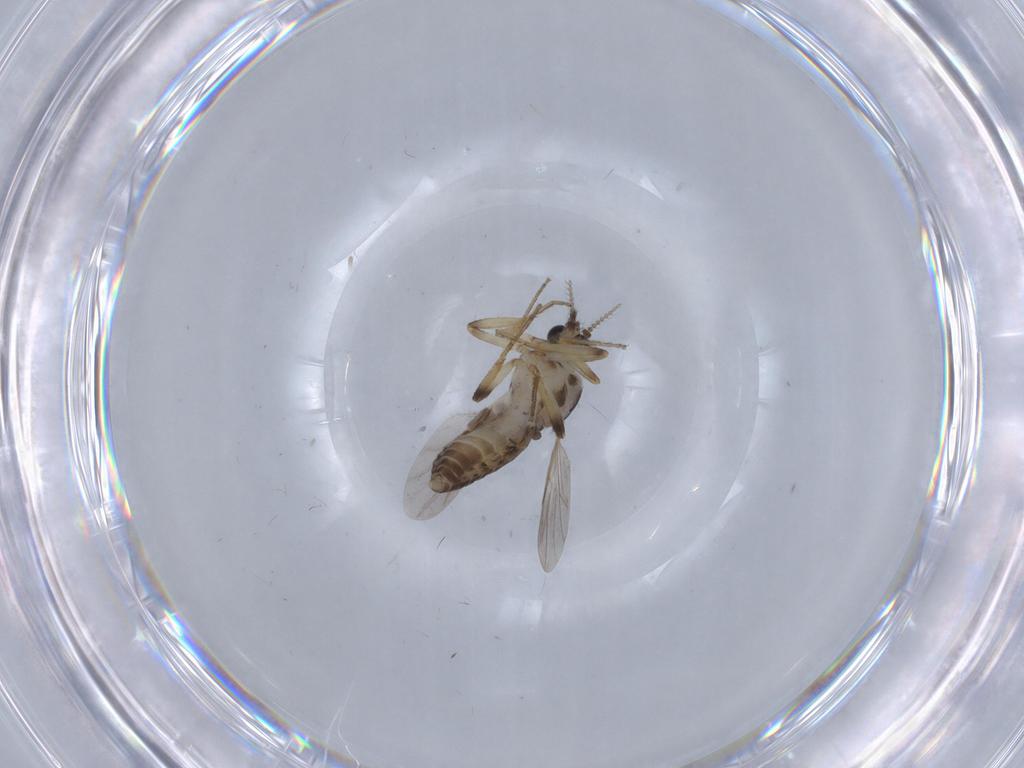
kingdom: Animalia
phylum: Arthropoda
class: Insecta
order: Diptera
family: Ceratopogonidae
